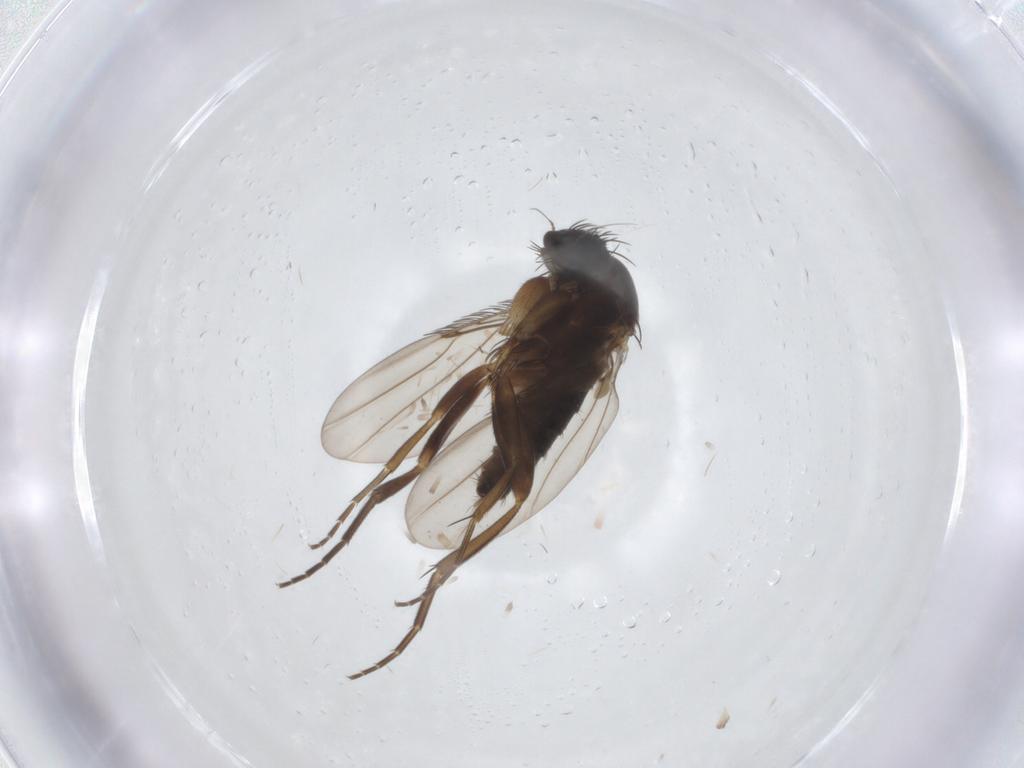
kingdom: Animalia
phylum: Arthropoda
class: Insecta
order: Diptera
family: Phoridae
